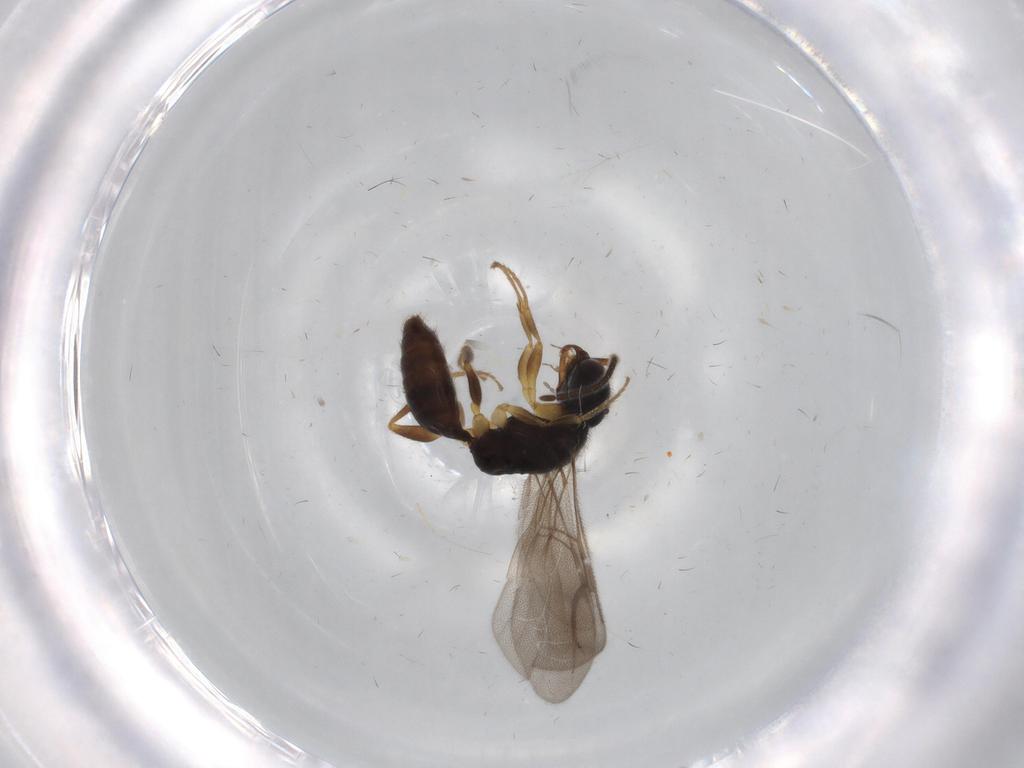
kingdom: Animalia
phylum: Arthropoda
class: Insecta
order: Hymenoptera
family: Bethylidae
